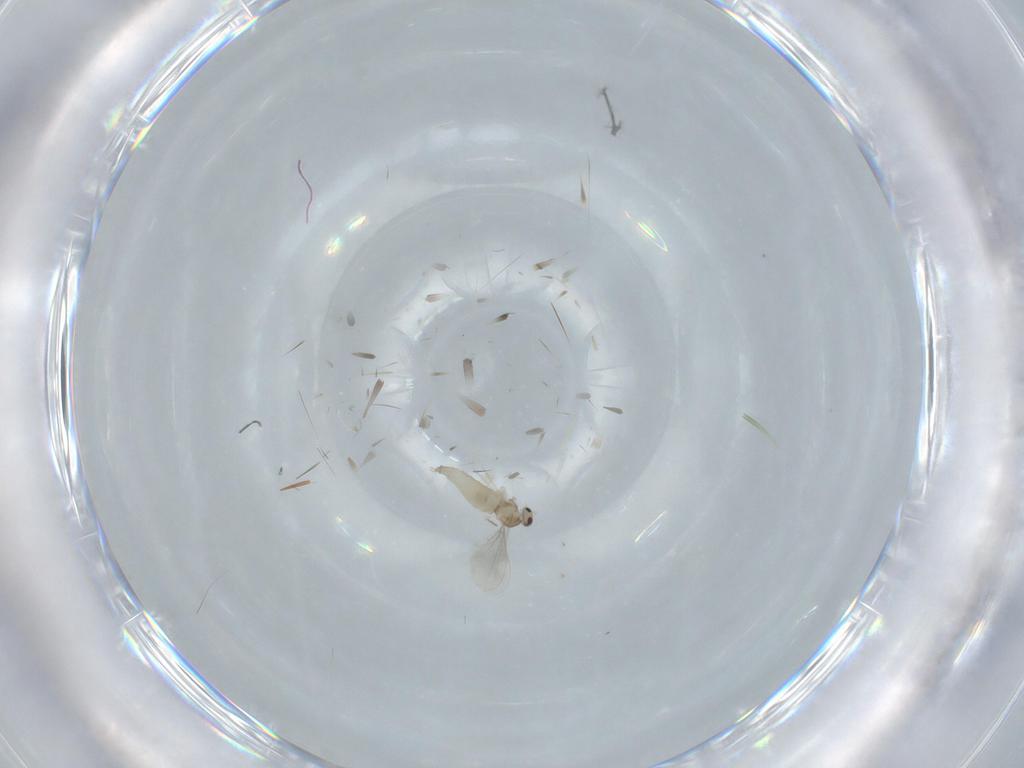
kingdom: Animalia
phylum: Arthropoda
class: Insecta
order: Diptera
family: Cecidomyiidae
